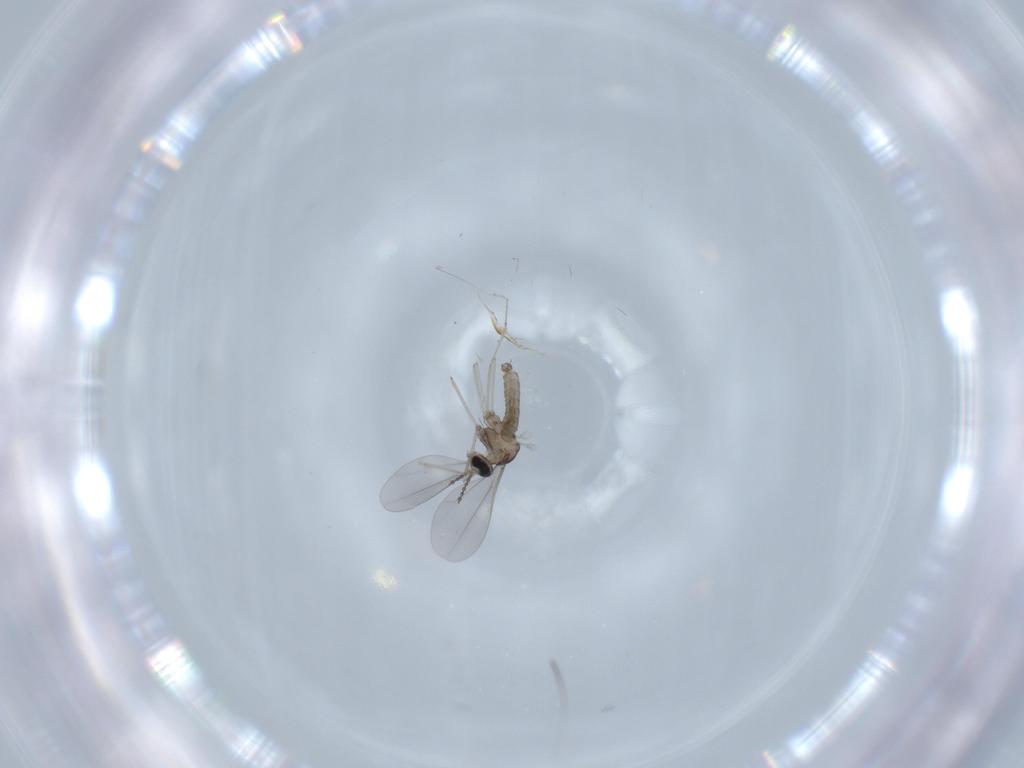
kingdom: Animalia
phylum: Arthropoda
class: Insecta
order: Diptera
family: Cecidomyiidae
